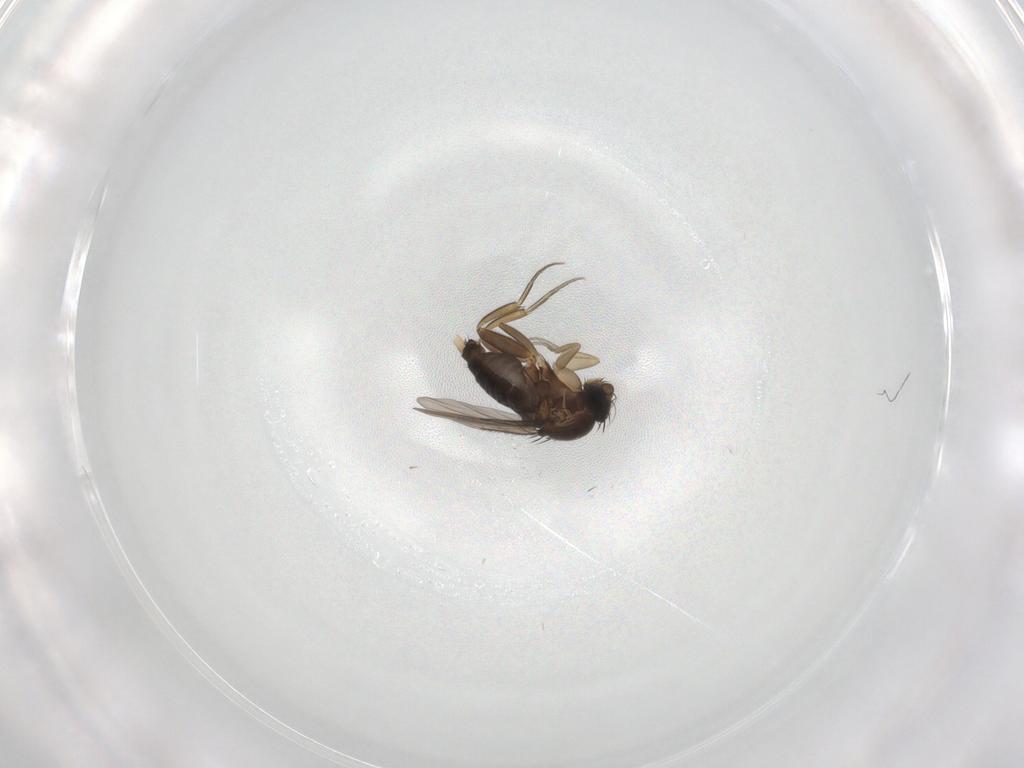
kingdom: Animalia
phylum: Arthropoda
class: Insecta
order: Diptera
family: Phoridae
